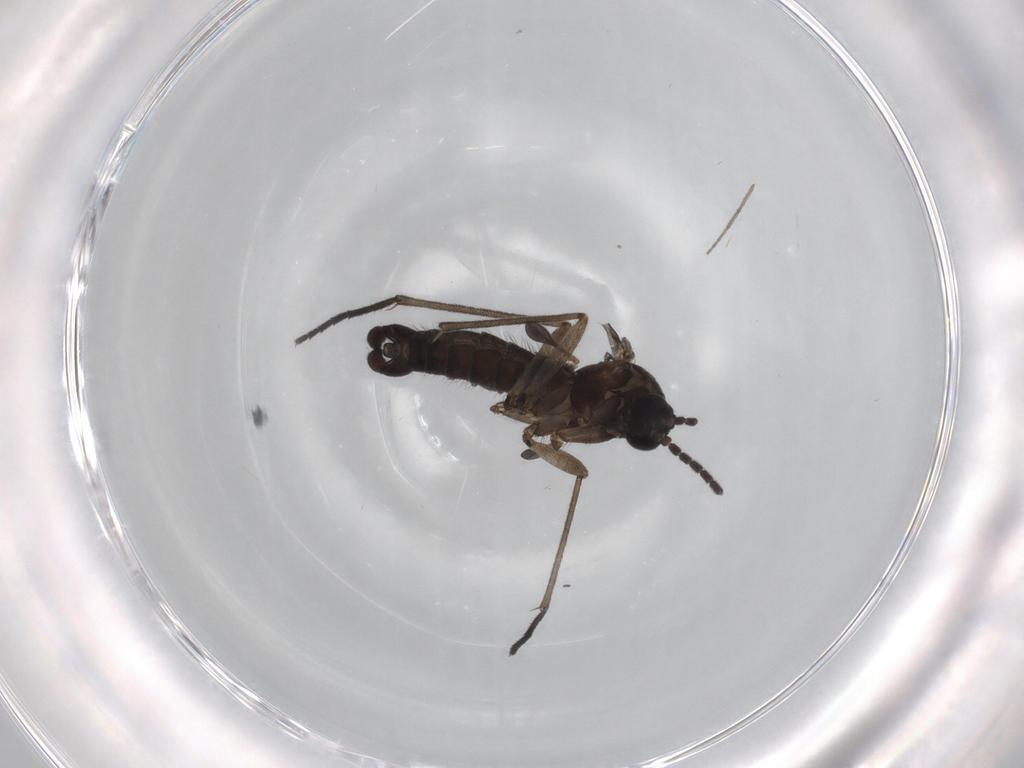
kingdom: Animalia
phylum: Arthropoda
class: Insecta
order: Diptera
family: Sciaridae
